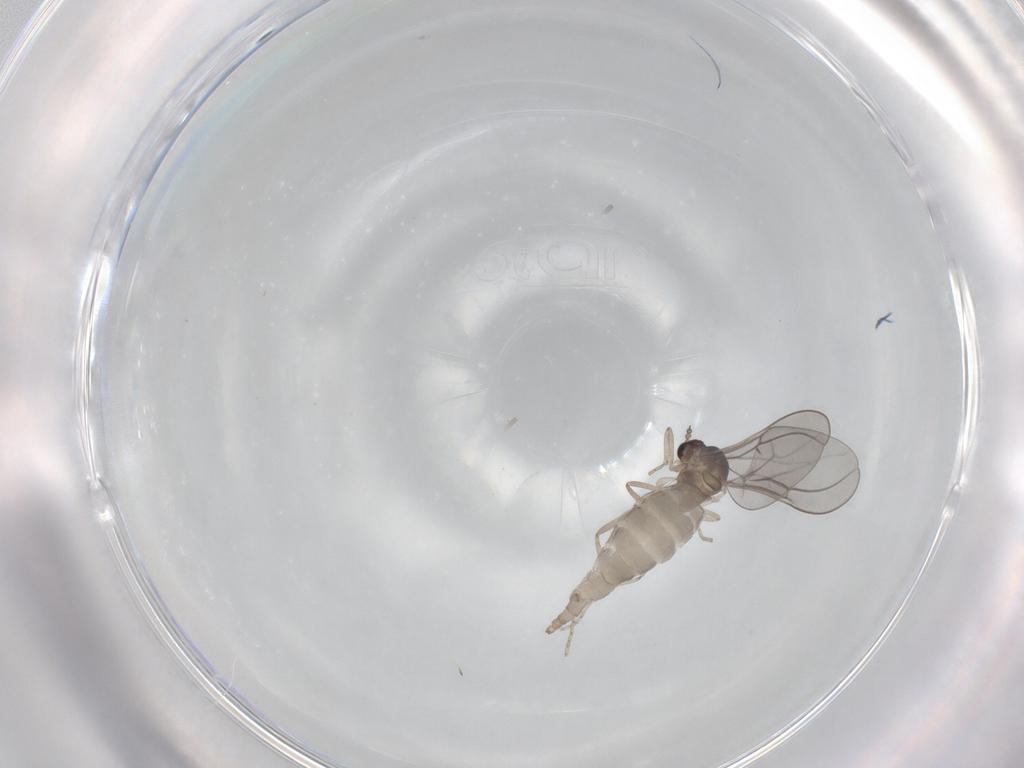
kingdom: Animalia
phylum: Arthropoda
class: Insecta
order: Diptera
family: Cecidomyiidae
